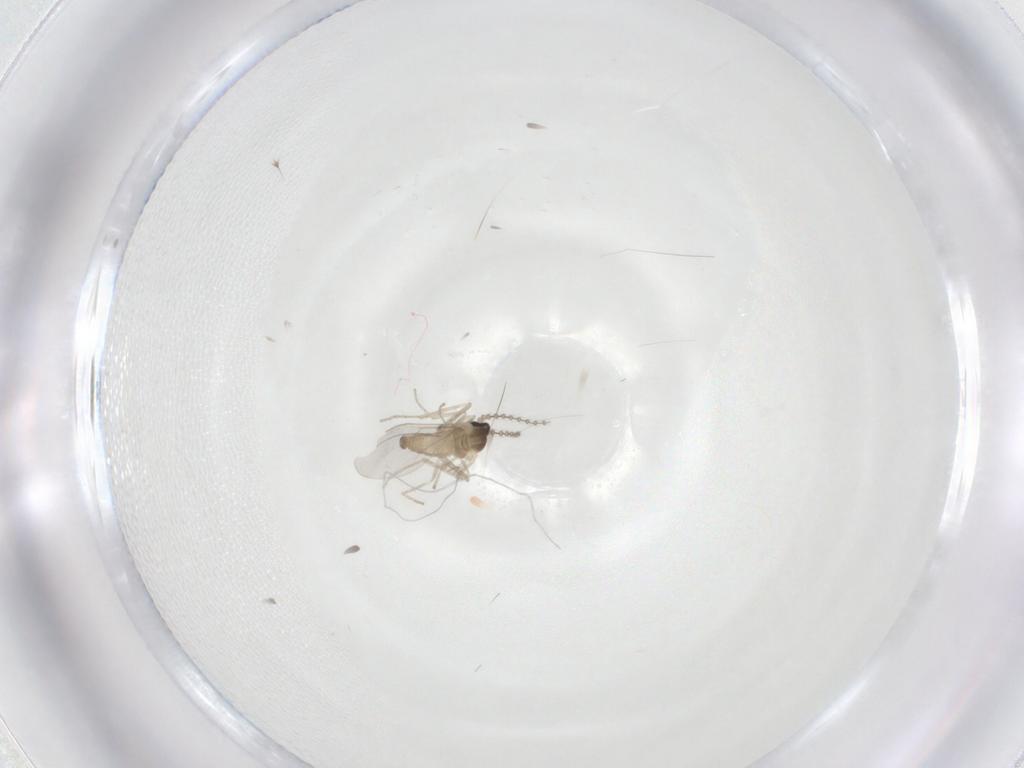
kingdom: Animalia
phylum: Arthropoda
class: Insecta
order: Diptera
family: Cecidomyiidae
